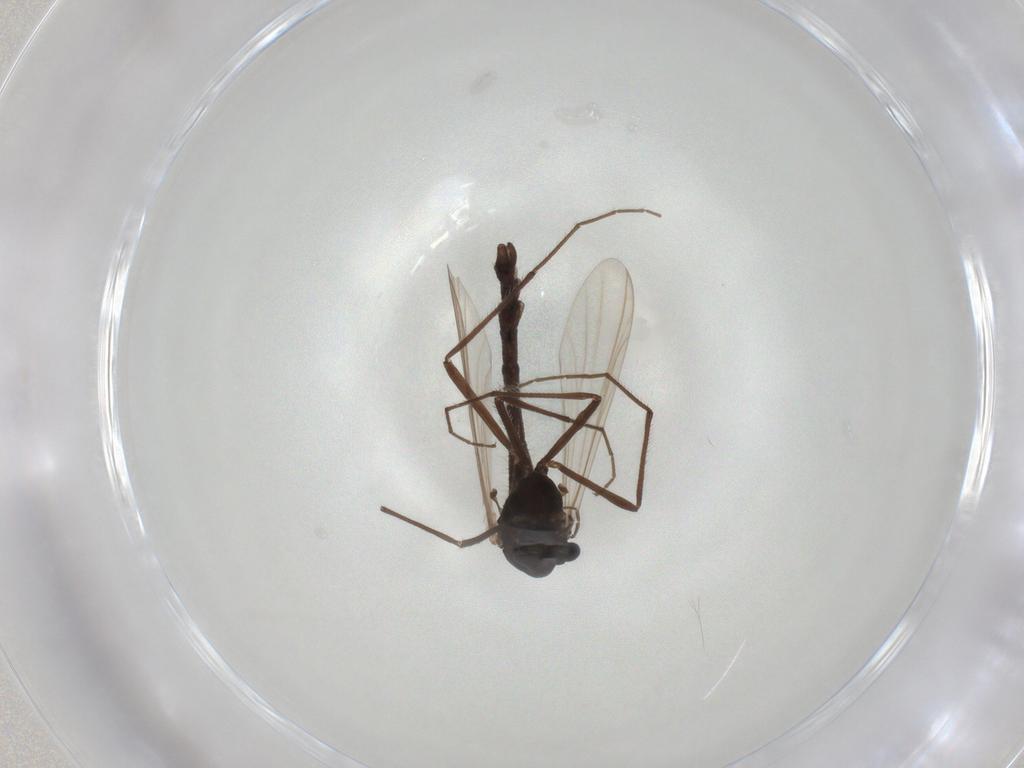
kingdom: Animalia
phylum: Arthropoda
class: Insecta
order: Diptera
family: Chironomidae
